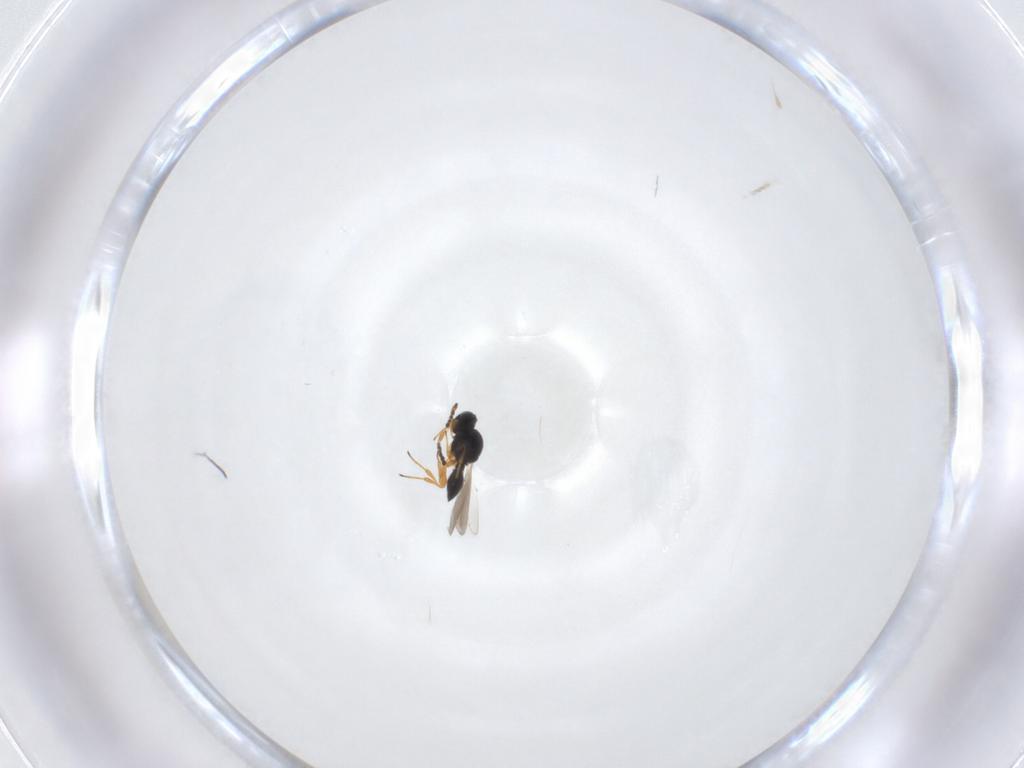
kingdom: Animalia
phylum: Arthropoda
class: Insecta
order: Hymenoptera
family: Platygastridae
